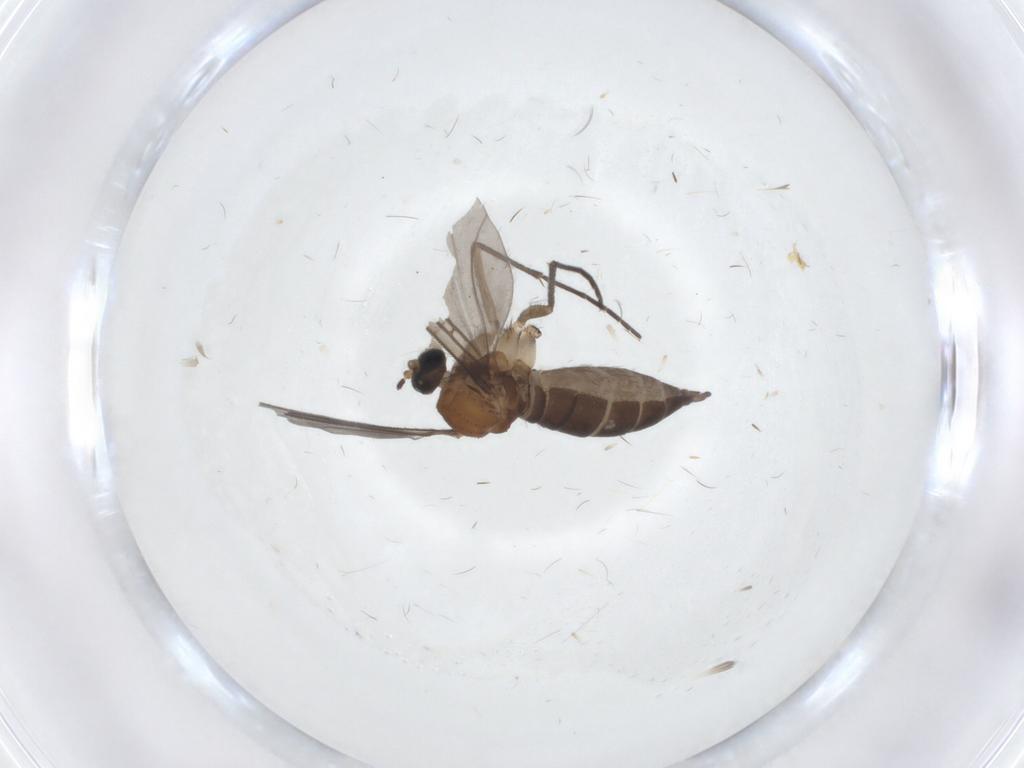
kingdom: Animalia
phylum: Arthropoda
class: Insecta
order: Diptera
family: Sciaridae
